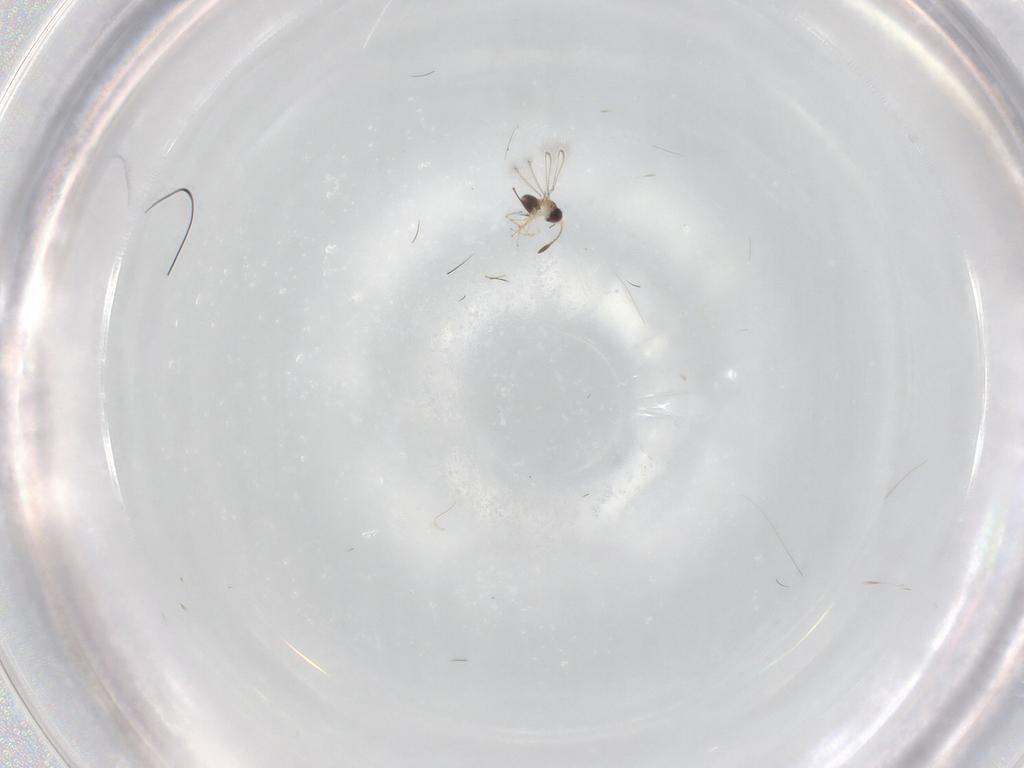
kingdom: Animalia
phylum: Arthropoda
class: Insecta
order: Hymenoptera
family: Mymaridae
